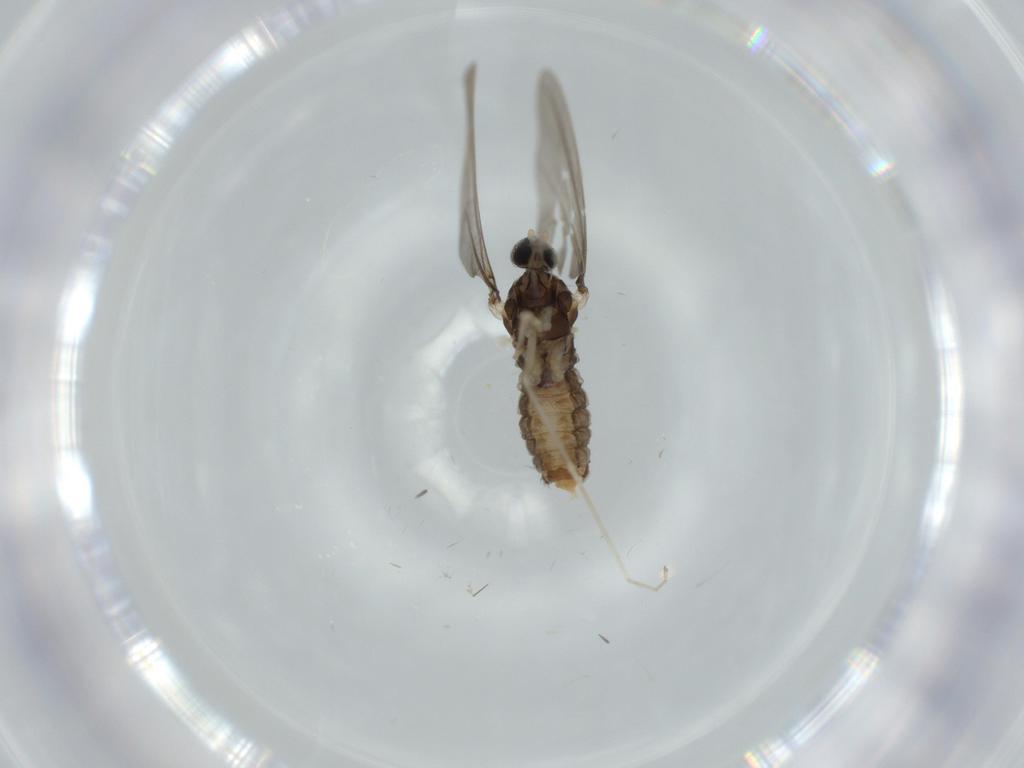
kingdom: Animalia
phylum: Arthropoda
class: Insecta
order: Diptera
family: Cecidomyiidae
